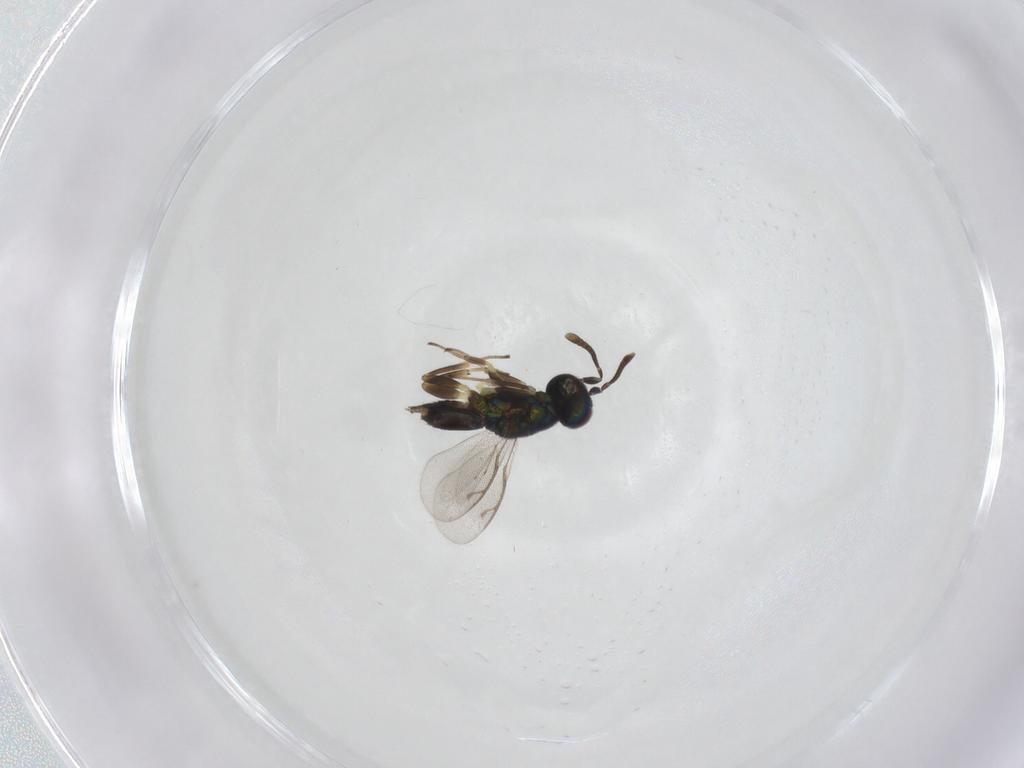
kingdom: Animalia
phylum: Arthropoda
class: Insecta
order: Hymenoptera
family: Eupelmidae
